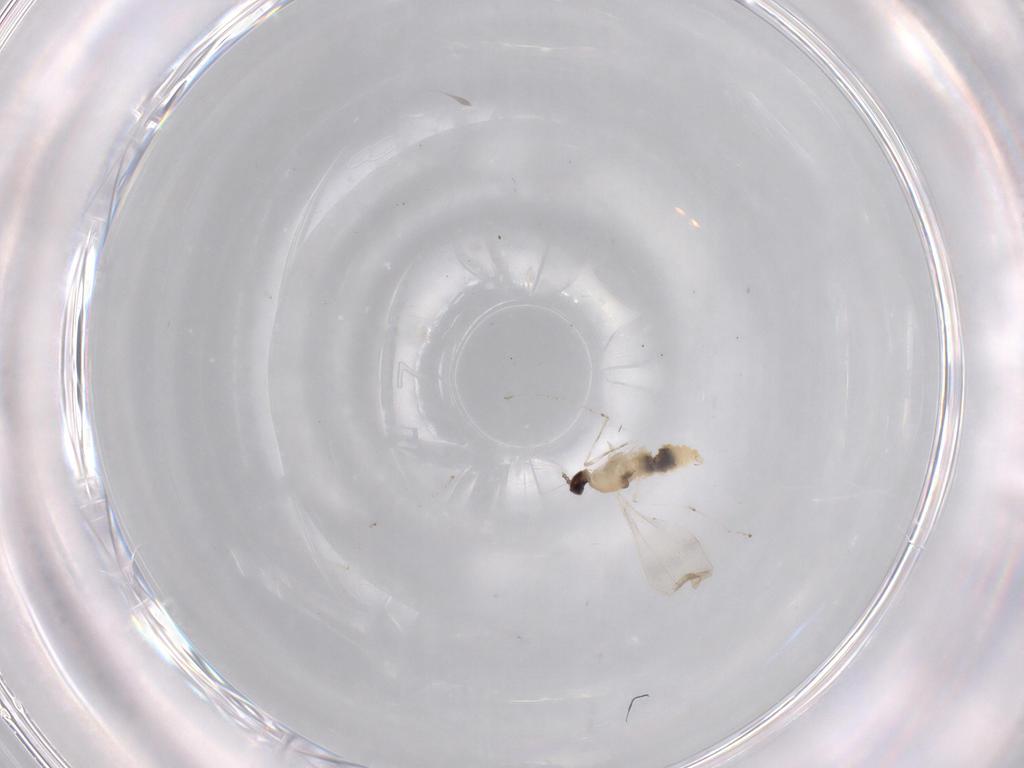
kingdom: Animalia
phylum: Arthropoda
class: Insecta
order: Diptera
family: Cecidomyiidae
